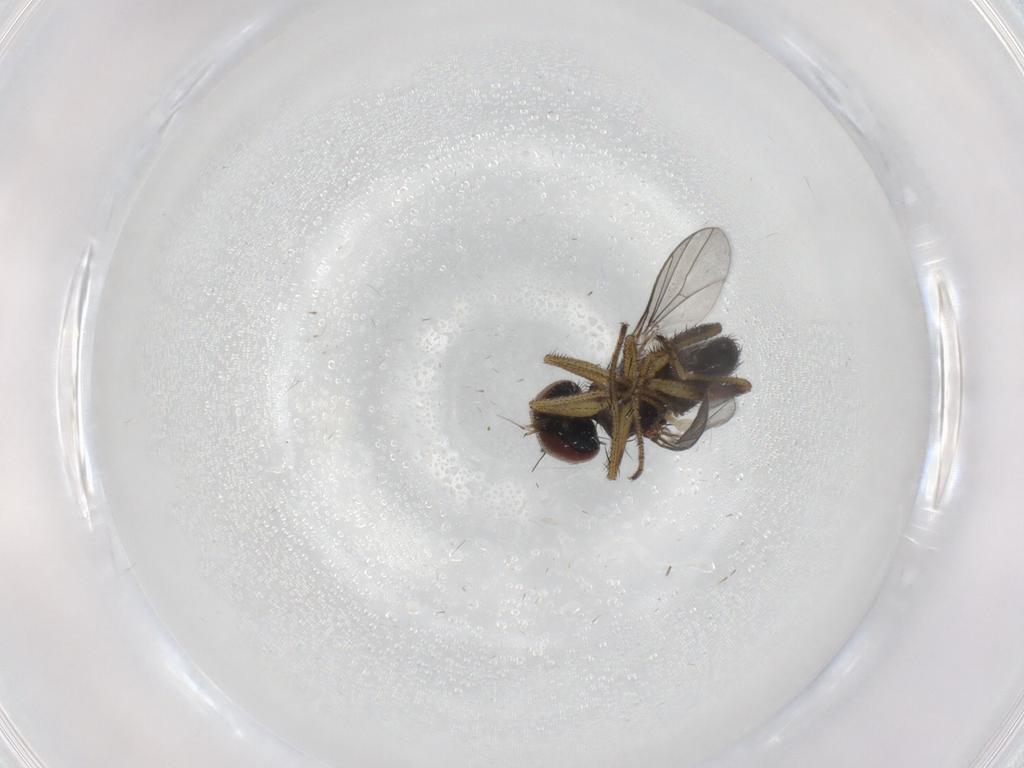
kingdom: Animalia
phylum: Arthropoda
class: Insecta
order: Diptera
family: Dolichopodidae
